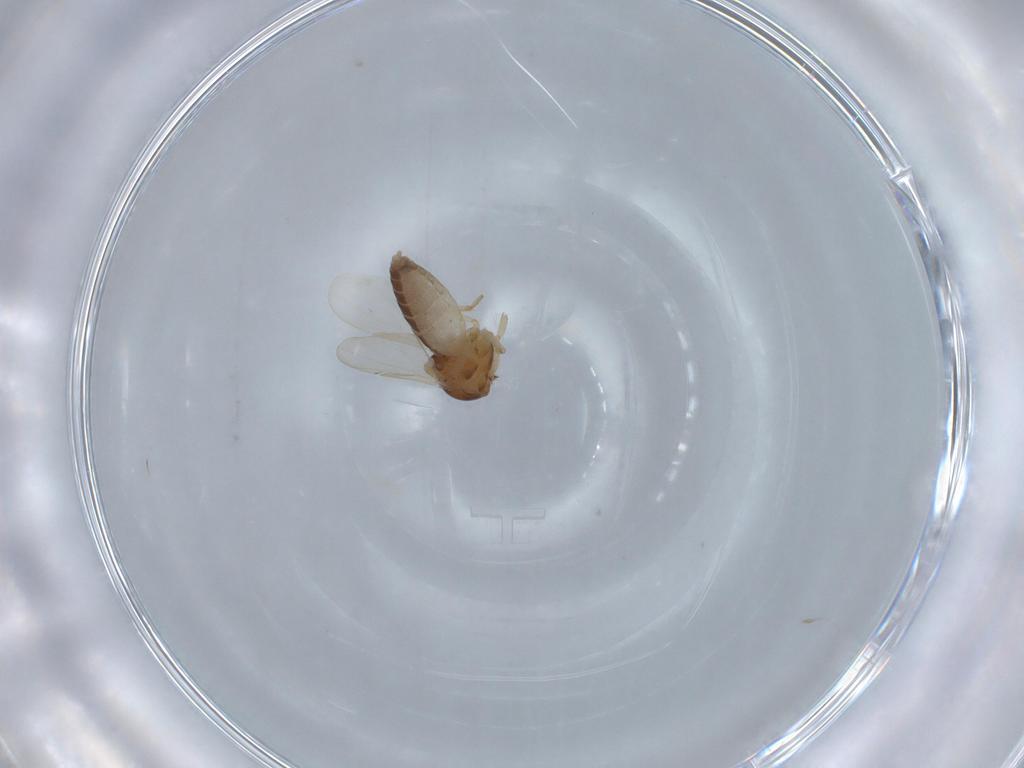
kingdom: Animalia
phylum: Arthropoda
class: Insecta
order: Diptera
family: Ceratopogonidae
